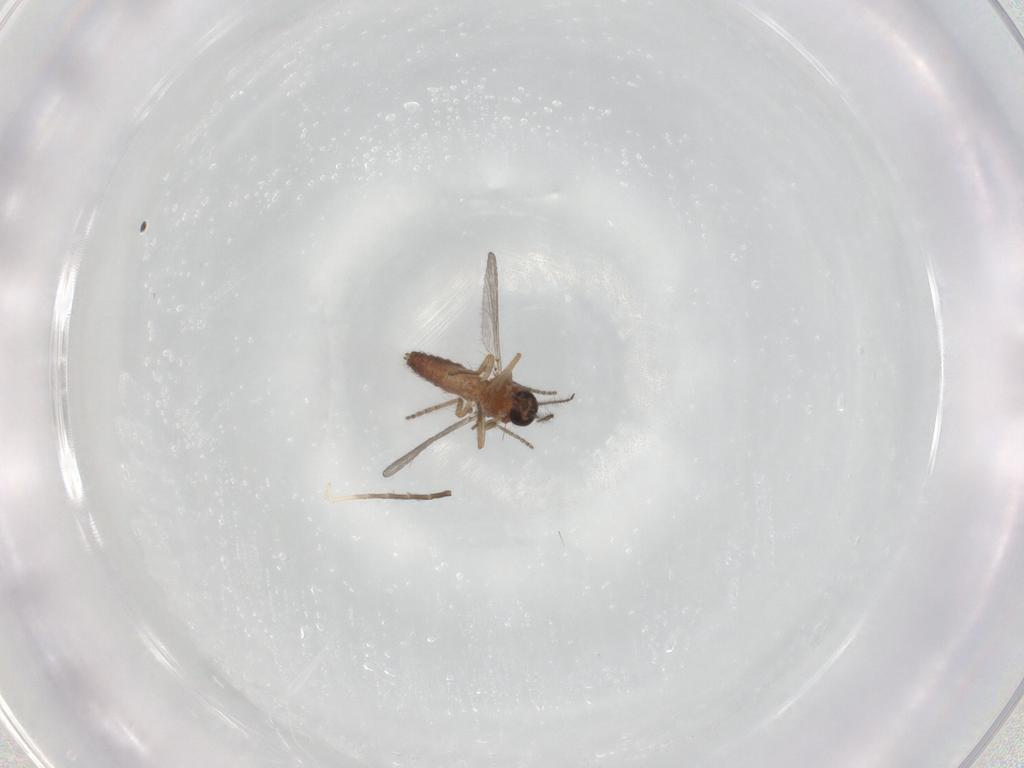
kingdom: Animalia
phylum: Arthropoda
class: Insecta
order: Diptera
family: Ceratopogonidae
